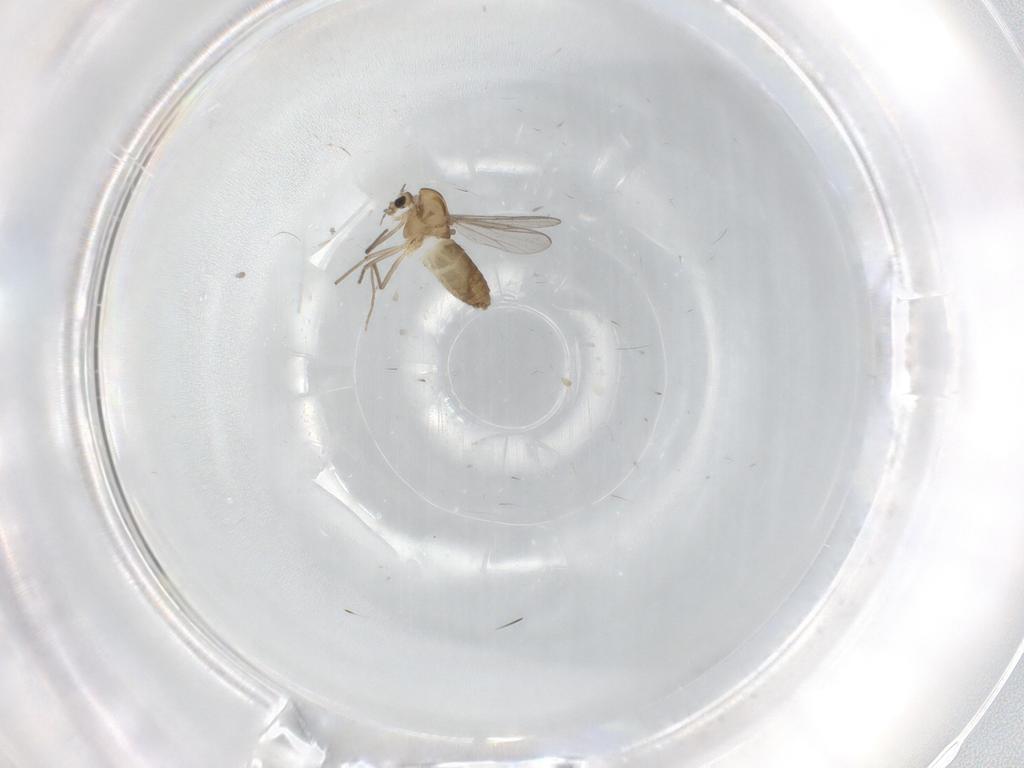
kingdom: Animalia
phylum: Arthropoda
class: Insecta
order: Diptera
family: Chironomidae
